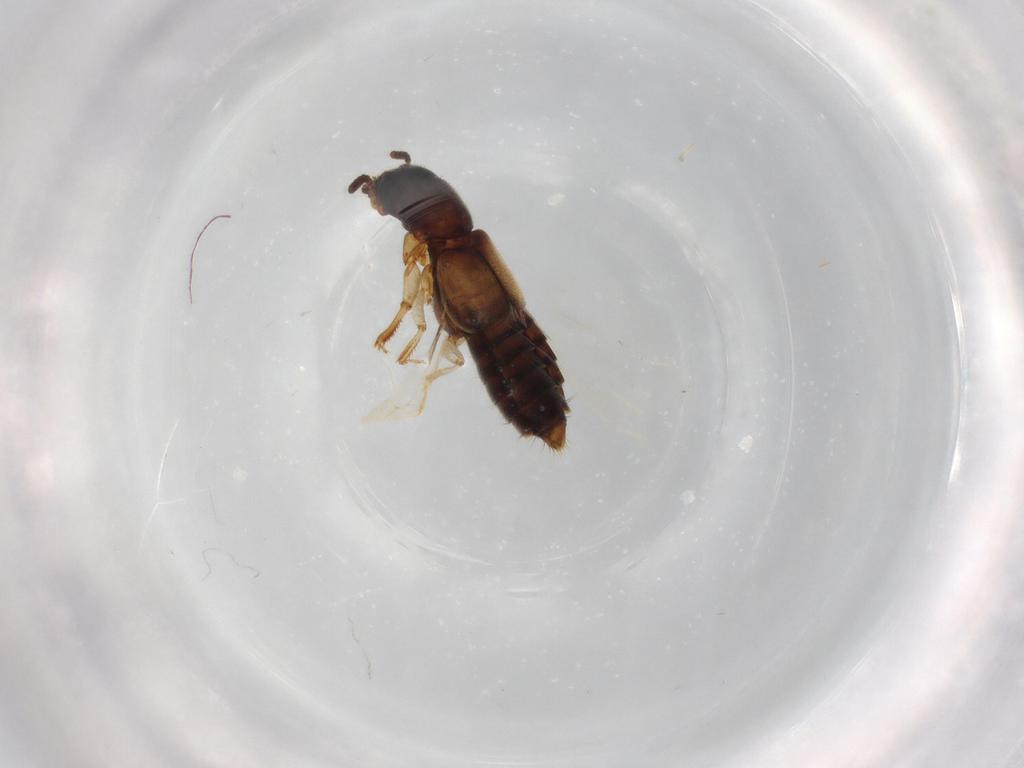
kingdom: Animalia
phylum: Arthropoda
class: Insecta
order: Coleoptera
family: Staphylinidae
